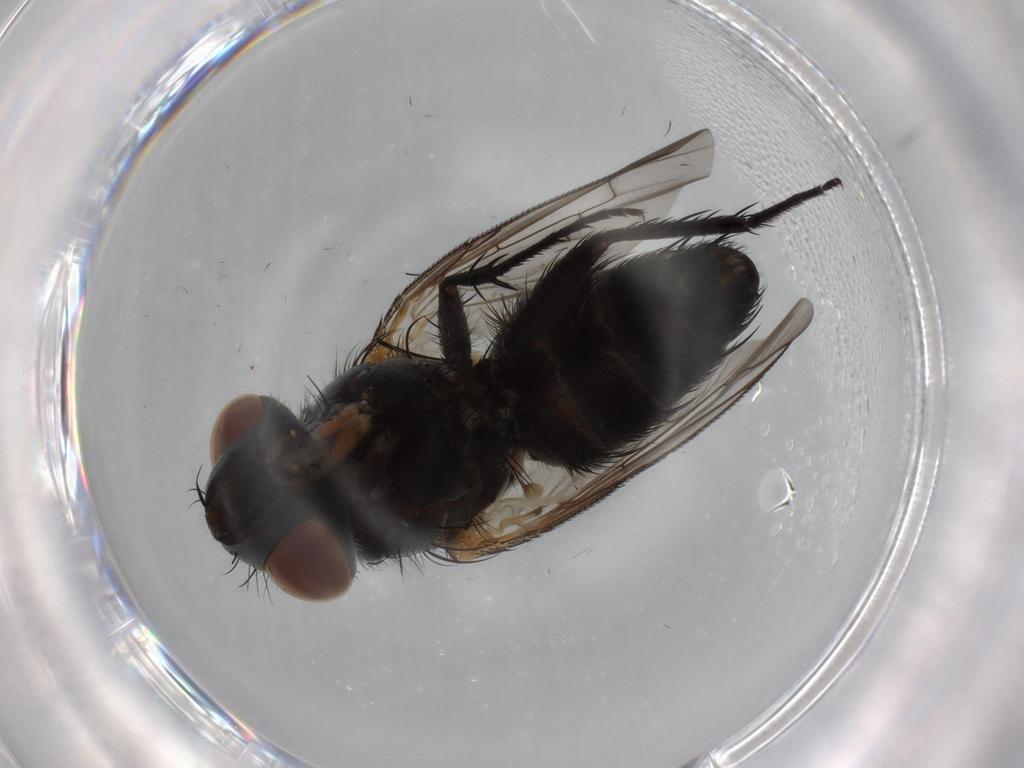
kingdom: Animalia
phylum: Arthropoda
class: Insecta
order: Diptera
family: Sarcophagidae
